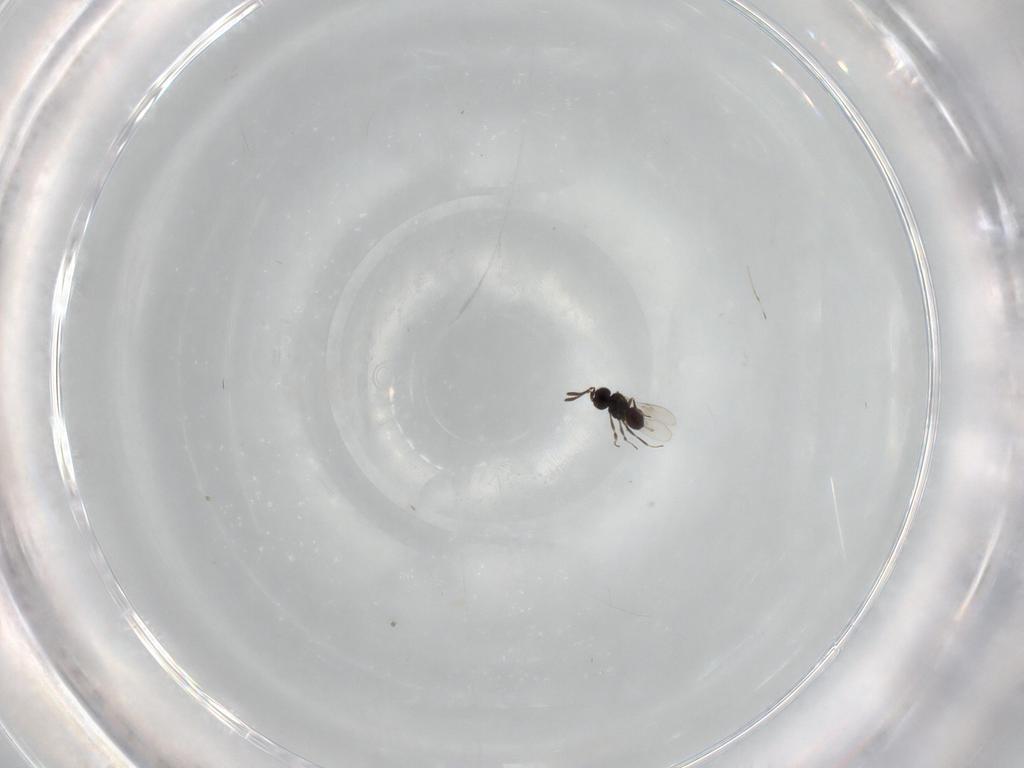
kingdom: Animalia
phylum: Arthropoda
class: Insecta
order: Hymenoptera
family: Scelionidae
